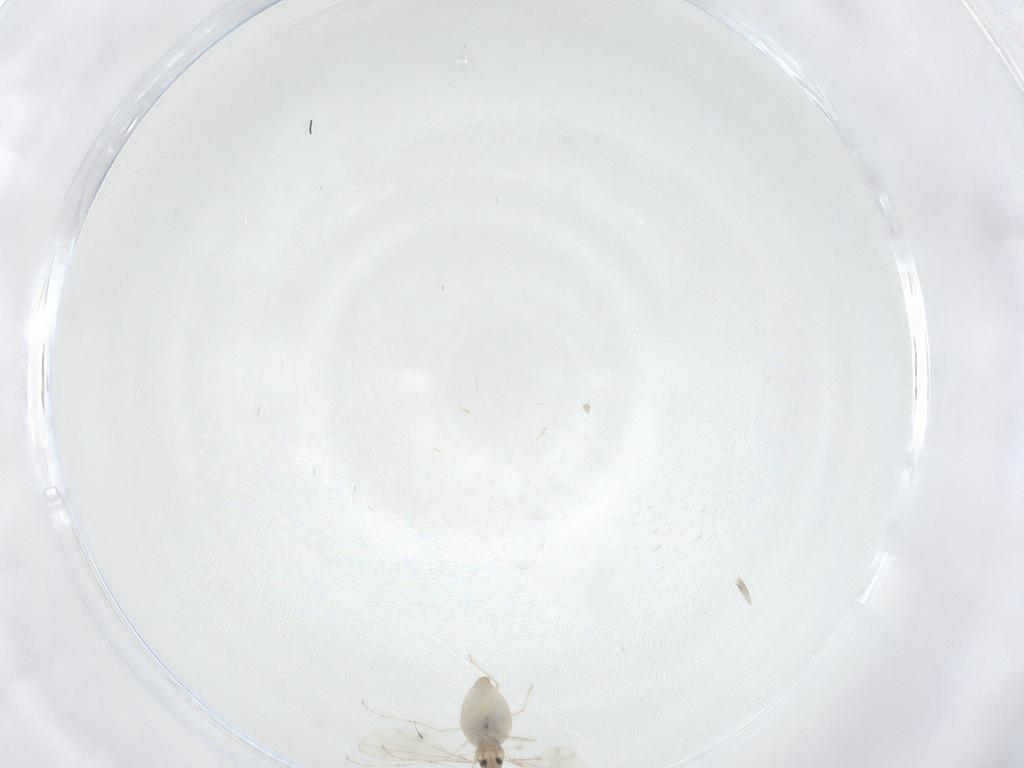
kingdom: Animalia
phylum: Arthropoda
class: Insecta
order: Diptera
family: Cecidomyiidae
